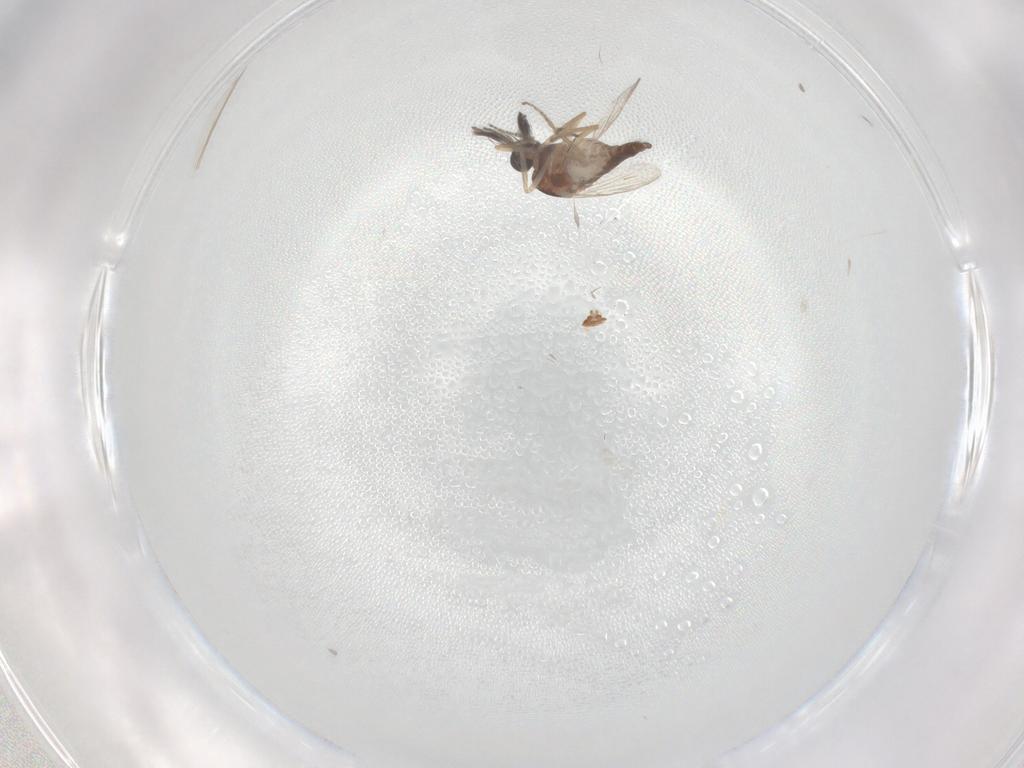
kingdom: Animalia
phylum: Arthropoda
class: Insecta
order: Diptera
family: Ceratopogonidae
